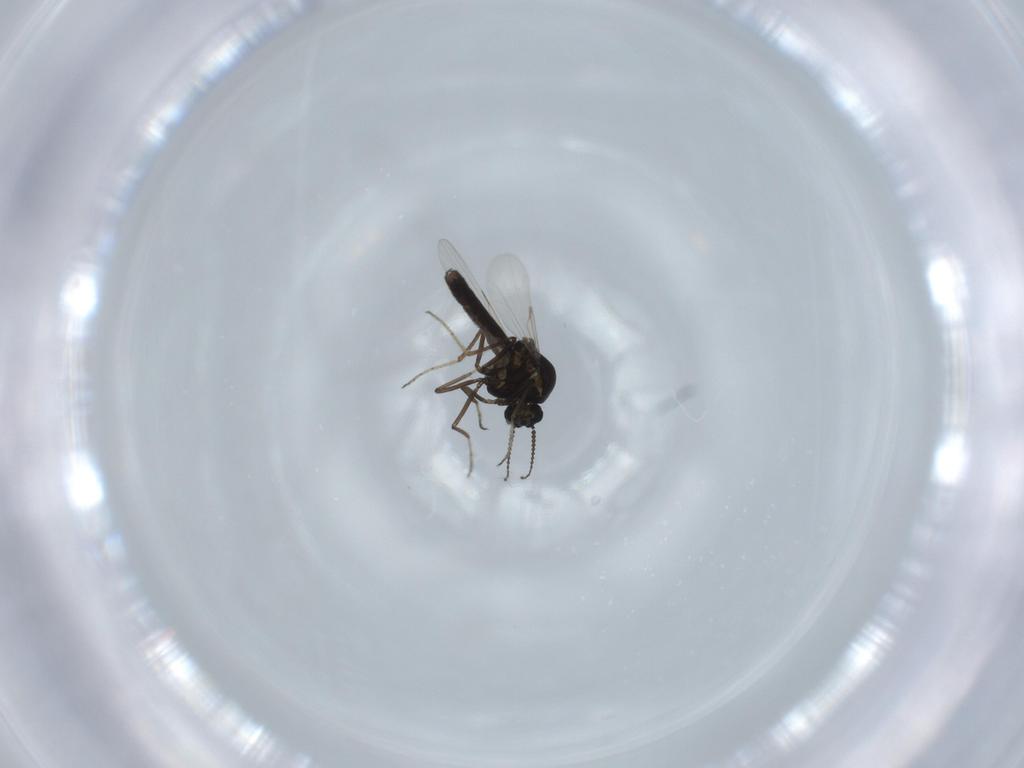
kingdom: Animalia
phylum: Arthropoda
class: Insecta
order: Diptera
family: Chironomidae
